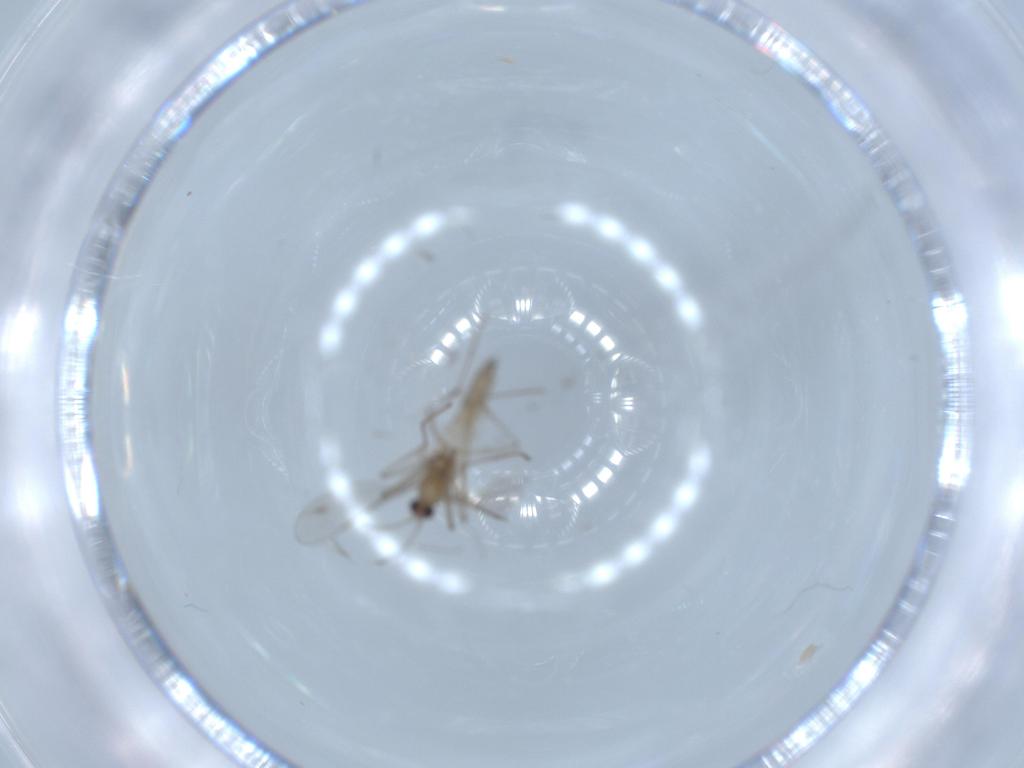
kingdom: Animalia
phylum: Arthropoda
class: Insecta
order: Diptera
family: Cecidomyiidae
